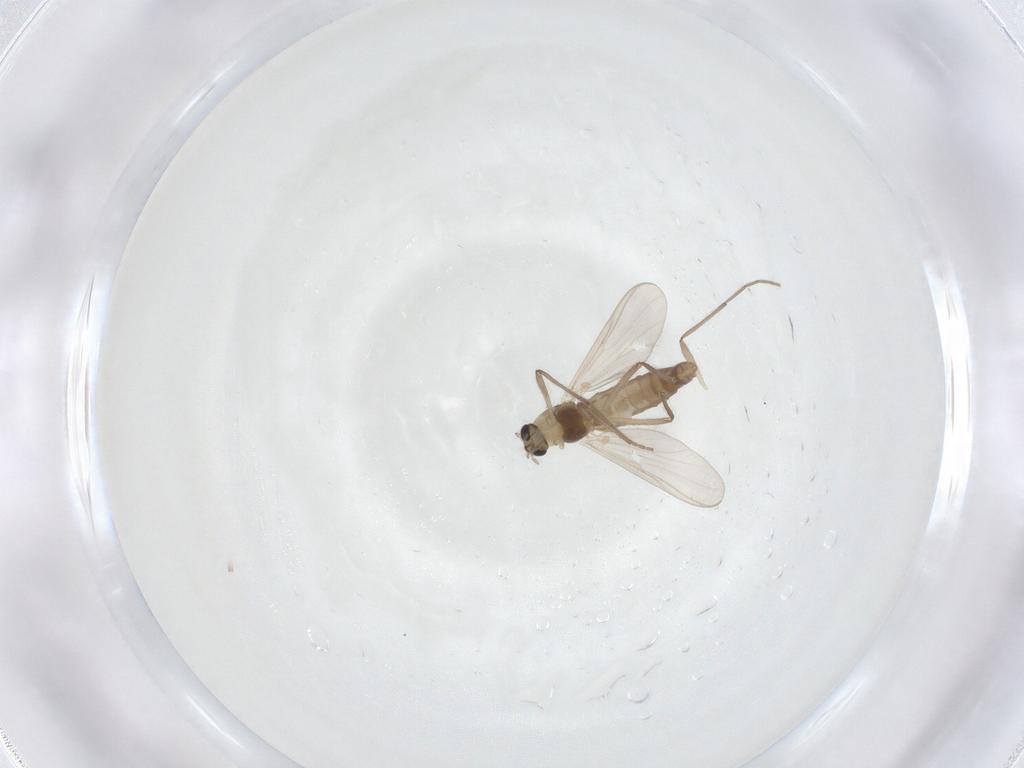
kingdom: Animalia
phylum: Arthropoda
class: Insecta
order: Diptera
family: Chironomidae
